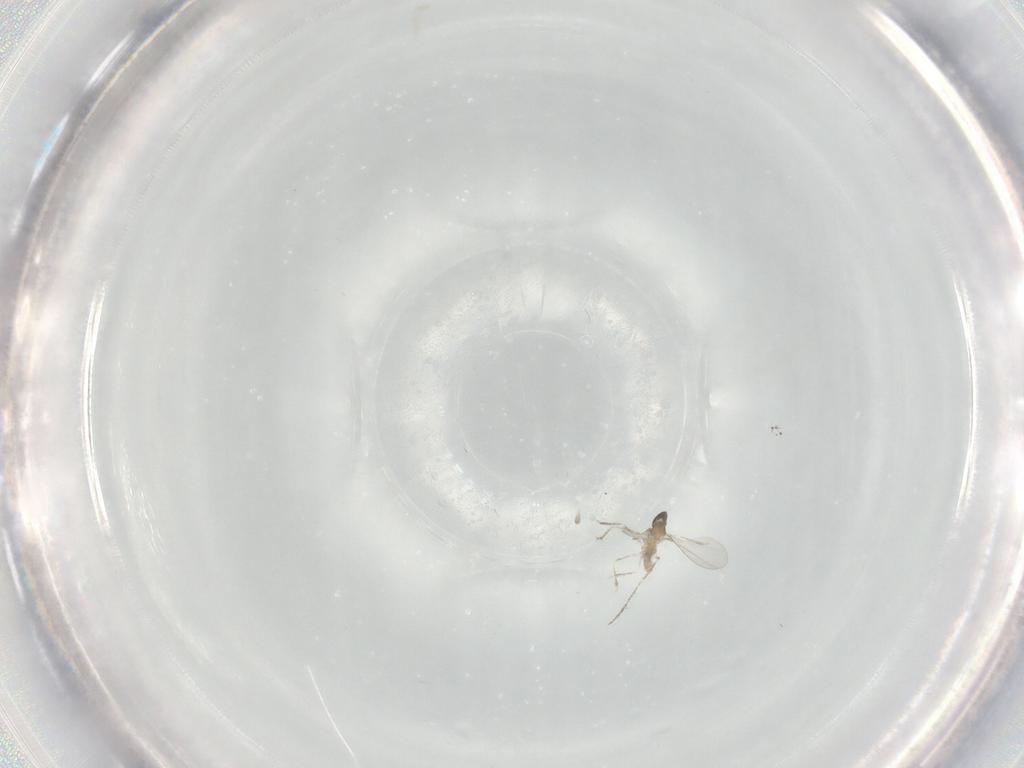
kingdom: Animalia
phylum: Arthropoda
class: Insecta
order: Diptera
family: Cecidomyiidae
